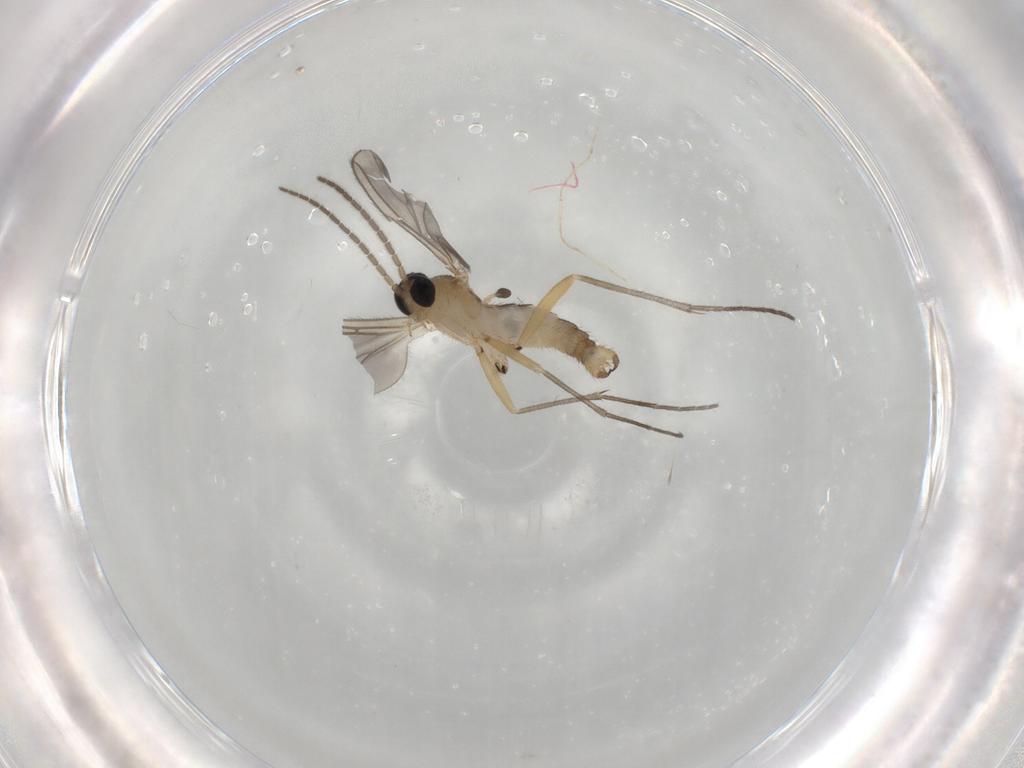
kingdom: Animalia
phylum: Arthropoda
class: Insecta
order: Diptera
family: Sciaridae
